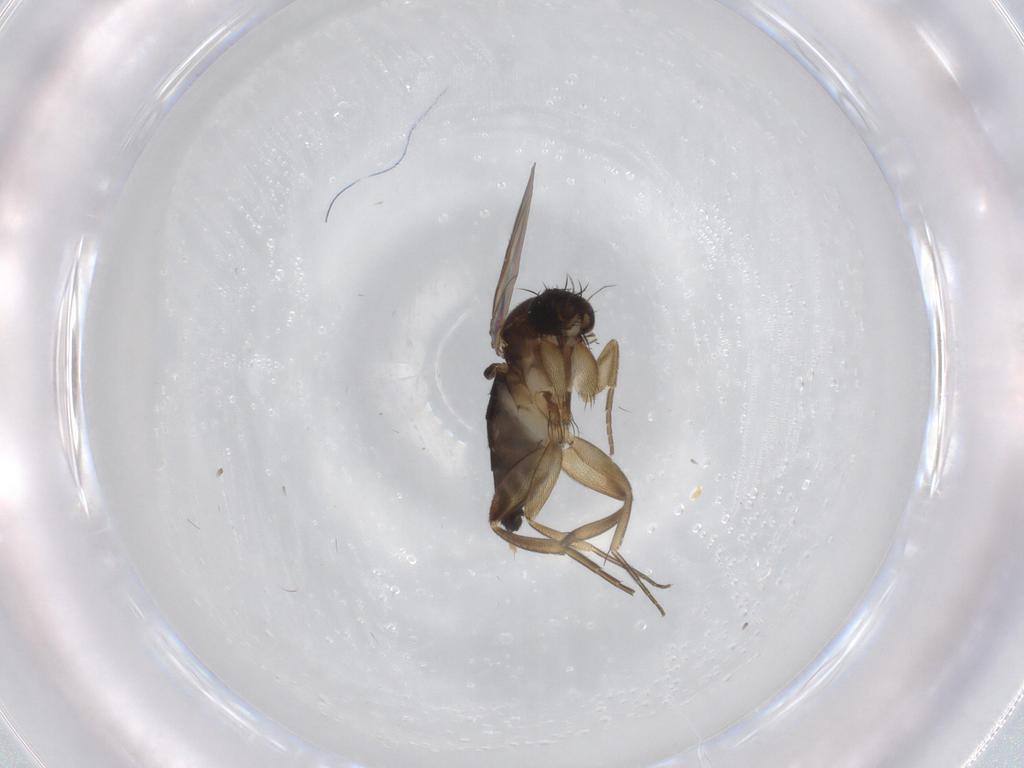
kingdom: Animalia
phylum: Arthropoda
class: Insecta
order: Diptera
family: Phoridae
